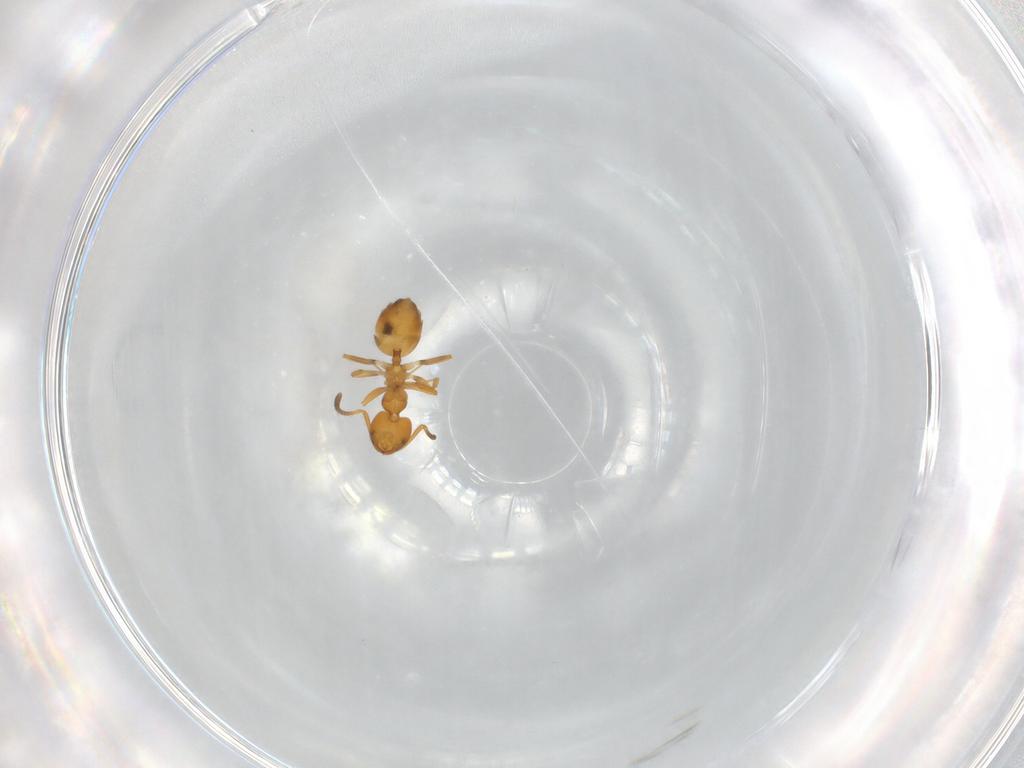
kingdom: Animalia
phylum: Arthropoda
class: Insecta
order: Hymenoptera
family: Formicidae
